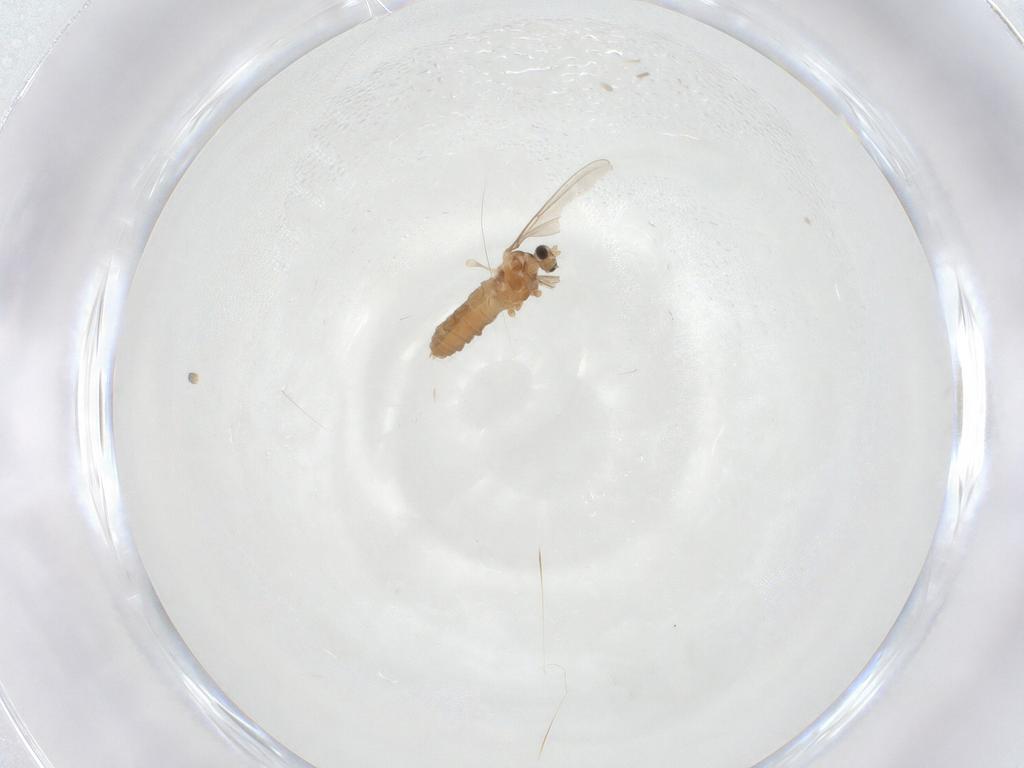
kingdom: Animalia
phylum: Arthropoda
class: Insecta
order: Diptera
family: Cecidomyiidae
